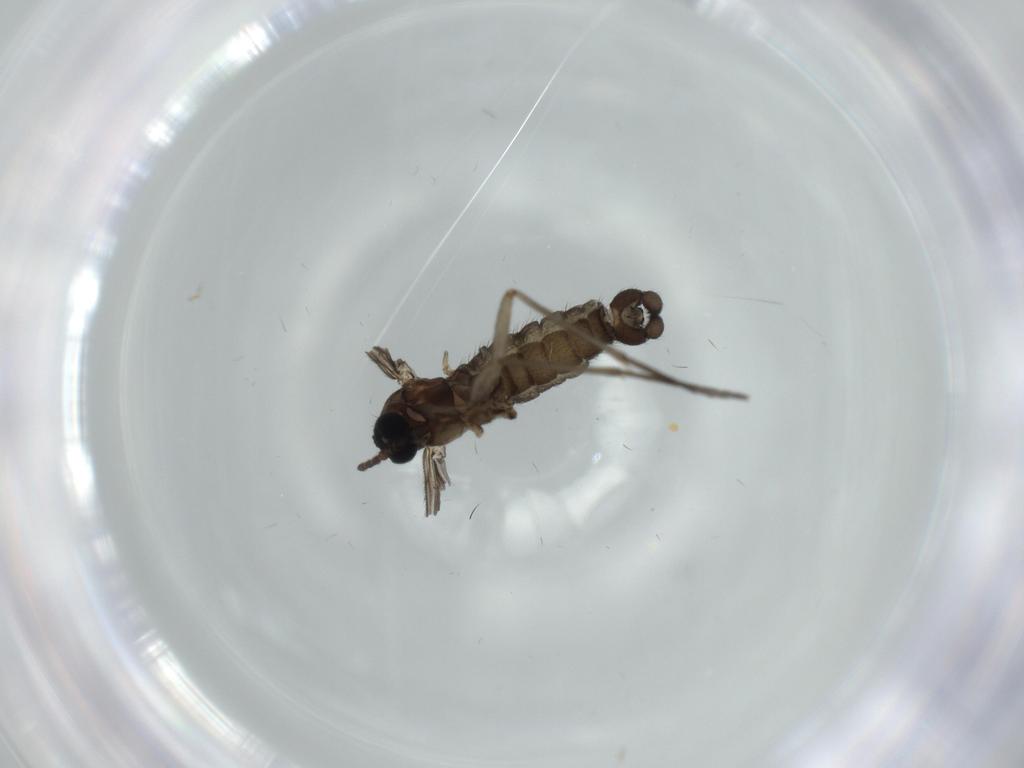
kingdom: Animalia
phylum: Arthropoda
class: Insecta
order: Diptera
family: Sciaridae
